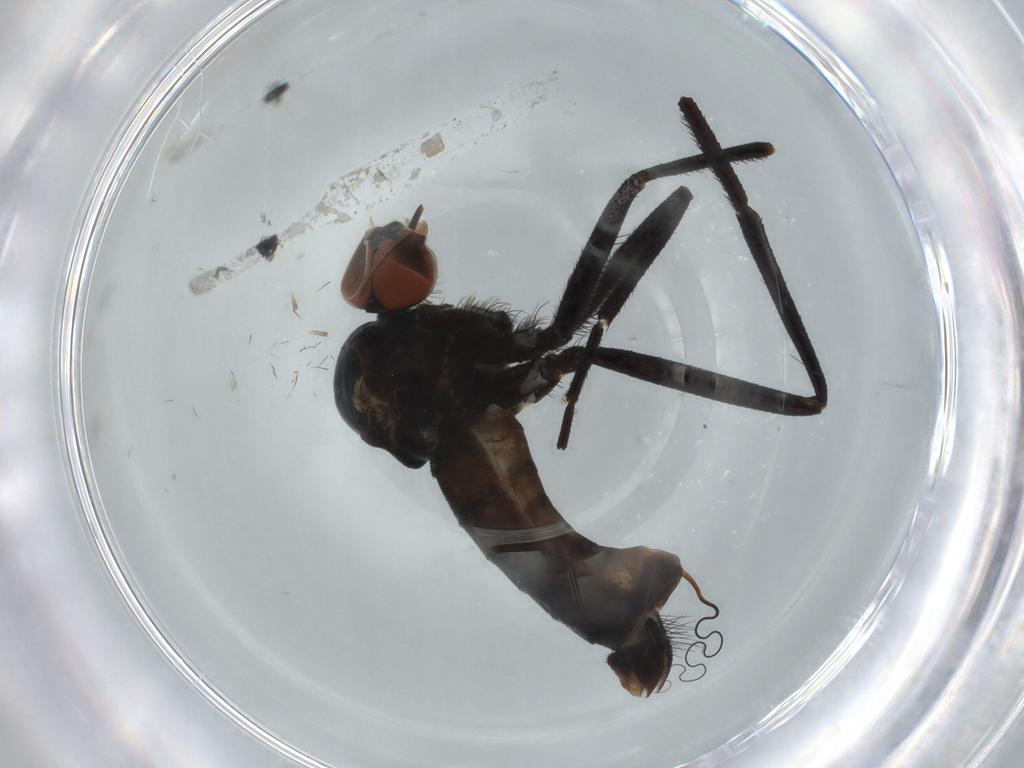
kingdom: Animalia
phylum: Arthropoda
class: Insecta
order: Diptera
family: Empididae
